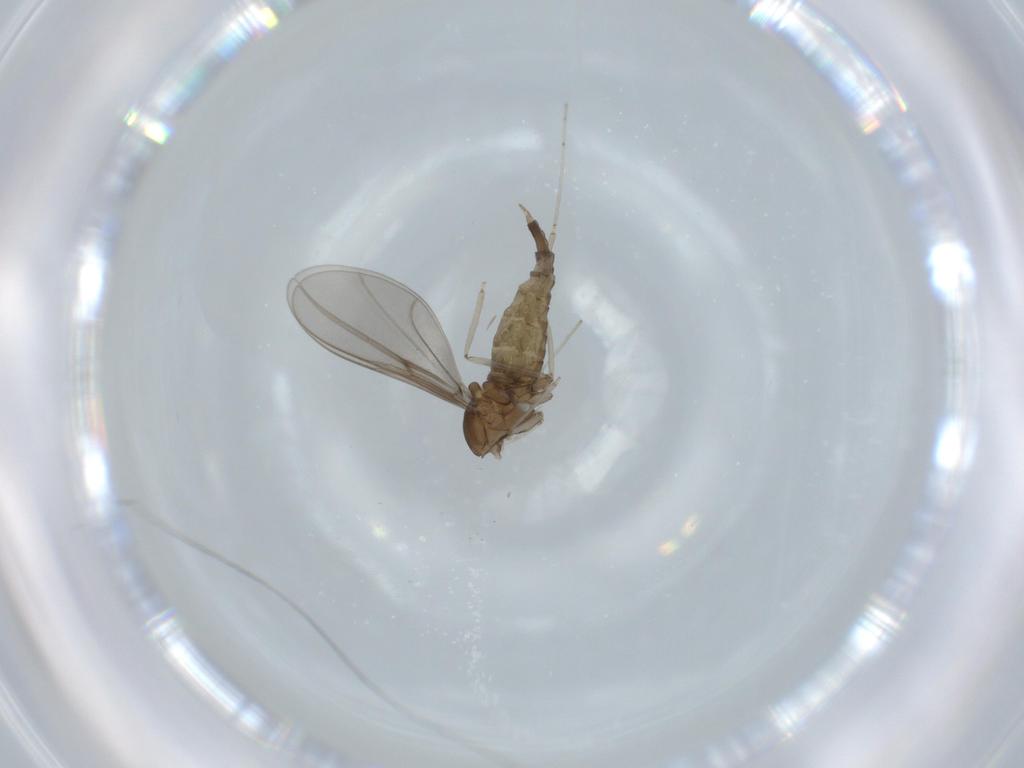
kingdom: Animalia
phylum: Arthropoda
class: Insecta
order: Diptera
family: Cecidomyiidae
